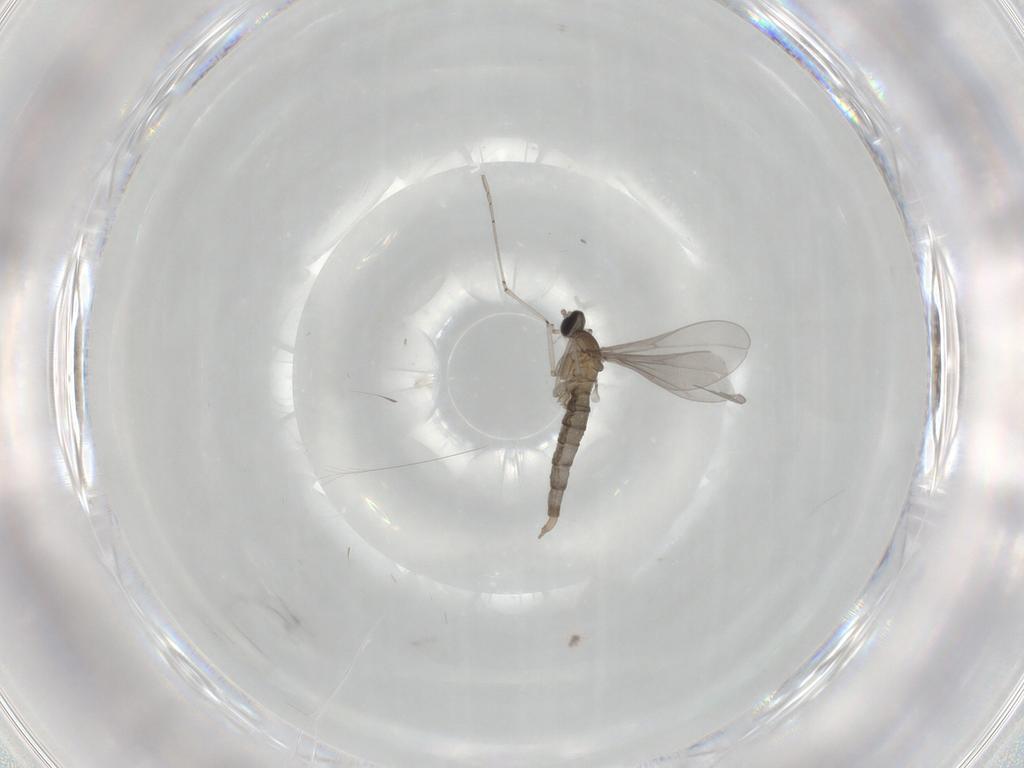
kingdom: Animalia
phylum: Arthropoda
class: Insecta
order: Diptera
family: Cecidomyiidae
